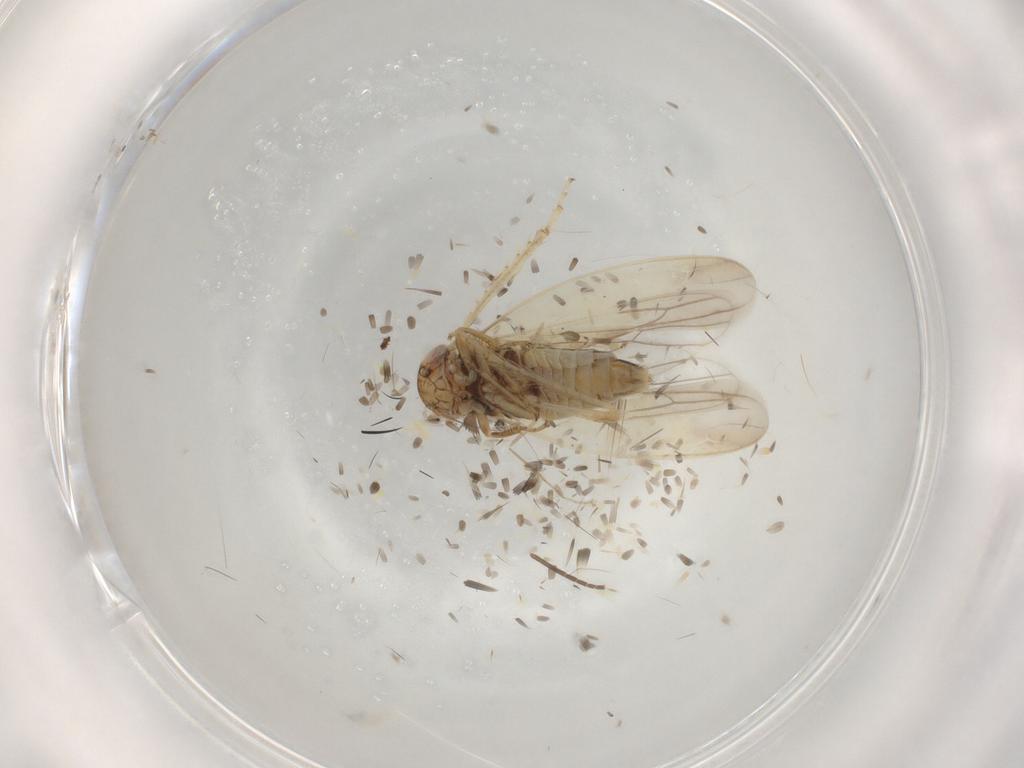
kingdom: Animalia
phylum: Arthropoda
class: Insecta
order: Hemiptera
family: Cicadellidae
